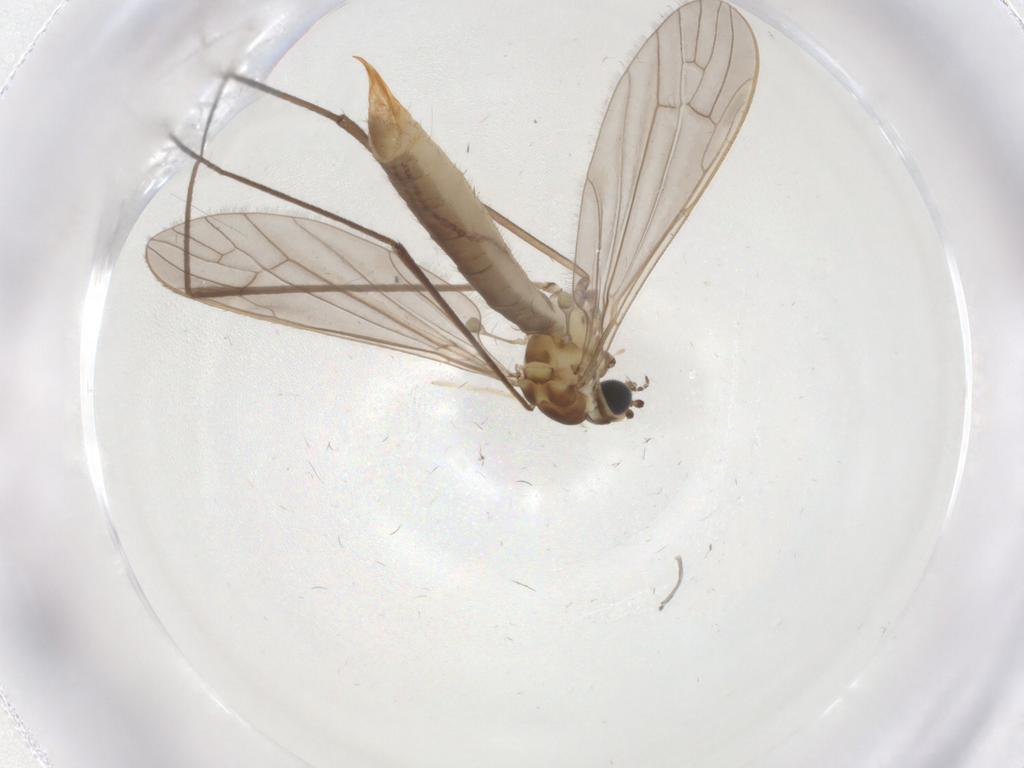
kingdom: Animalia
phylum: Arthropoda
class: Insecta
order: Diptera
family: Limoniidae
